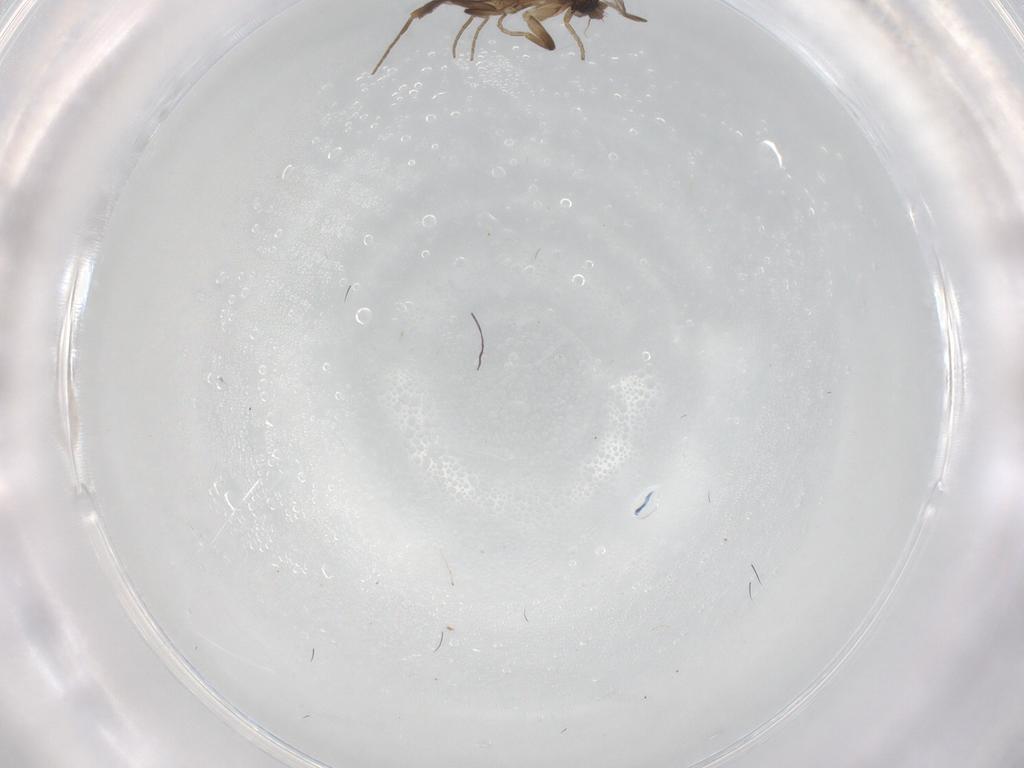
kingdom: Animalia
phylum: Arthropoda
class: Insecta
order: Diptera
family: Phoridae
